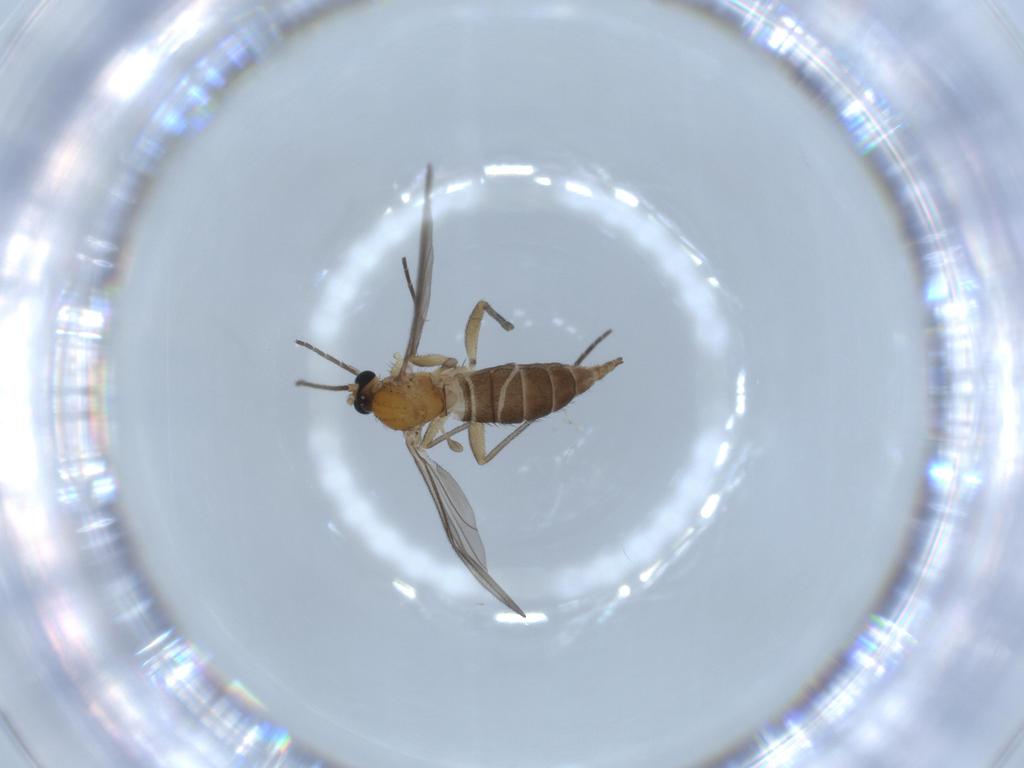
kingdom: Animalia
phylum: Arthropoda
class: Insecta
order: Diptera
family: Sciaridae
